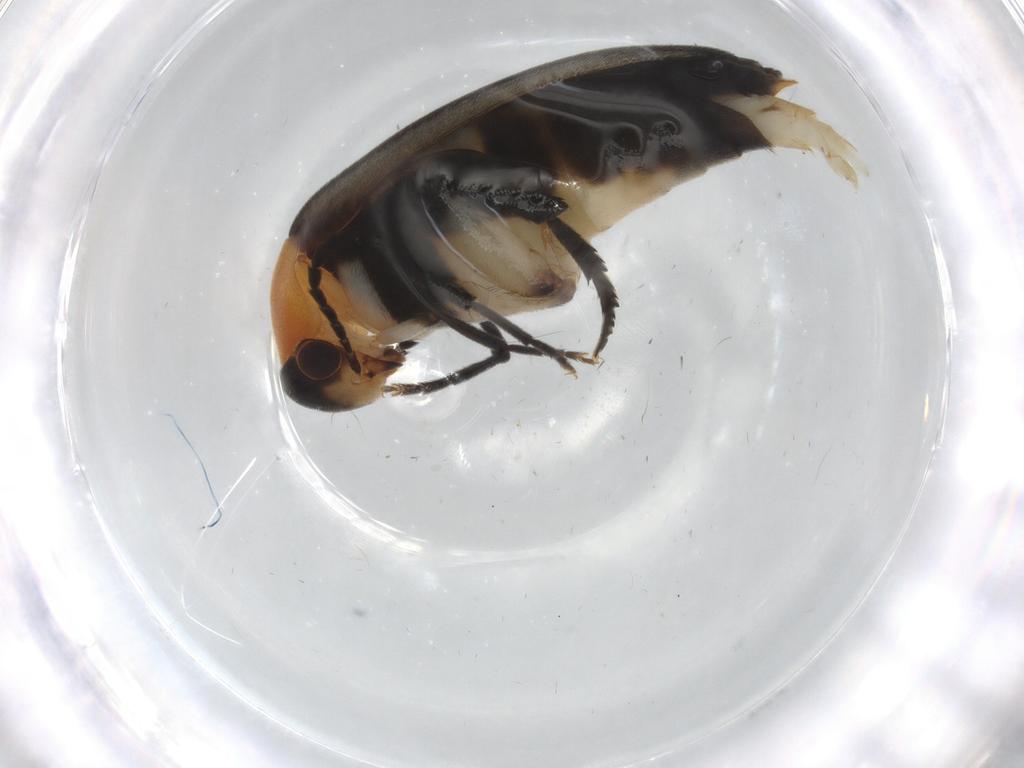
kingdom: Animalia
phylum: Arthropoda
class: Insecta
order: Coleoptera
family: Mordellidae
